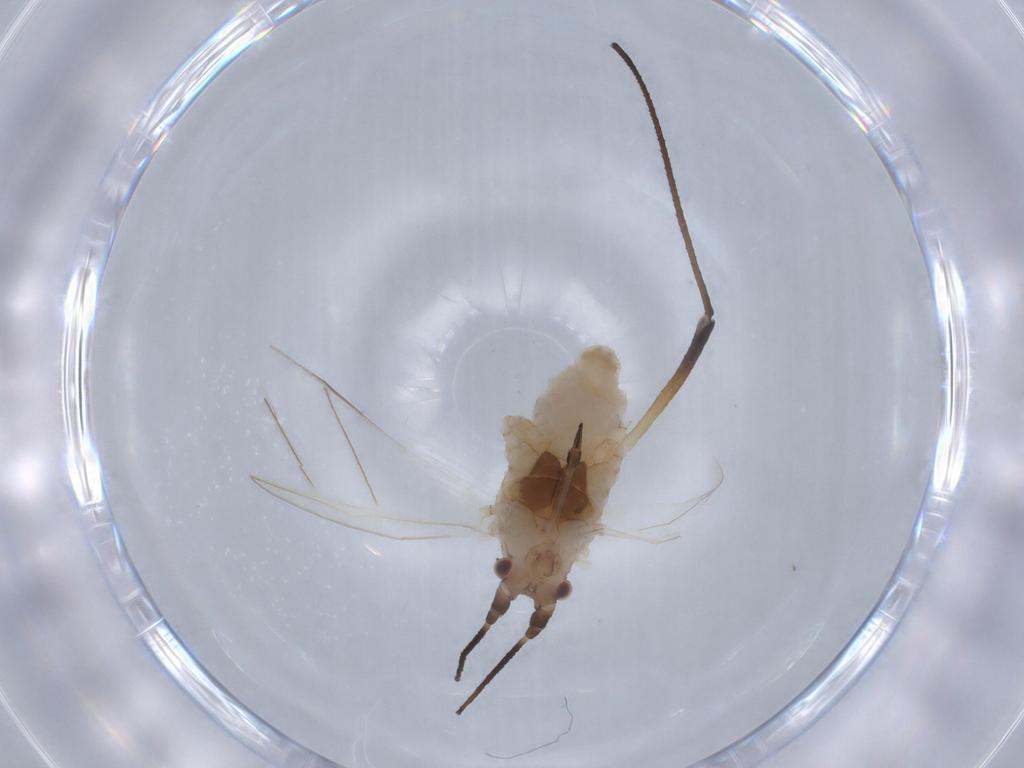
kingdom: Animalia
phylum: Arthropoda
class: Insecta
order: Hemiptera
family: Aphididae
